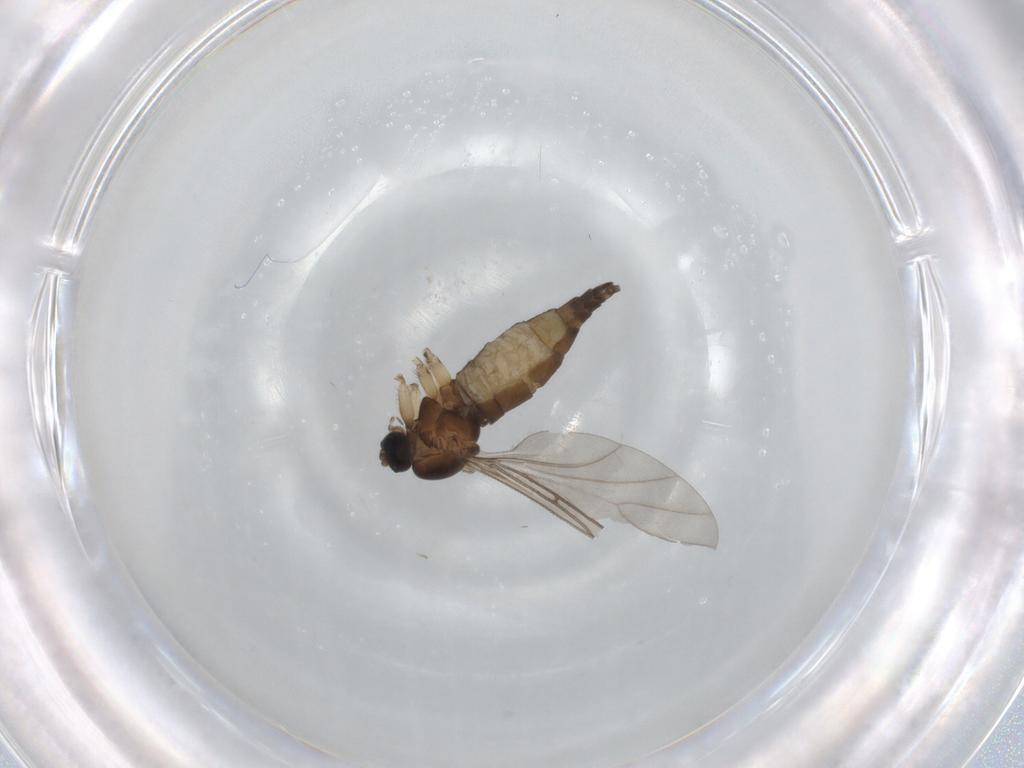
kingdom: Animalia
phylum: Arthropoda
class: Insecta
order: Diptera
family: Sciaridae
